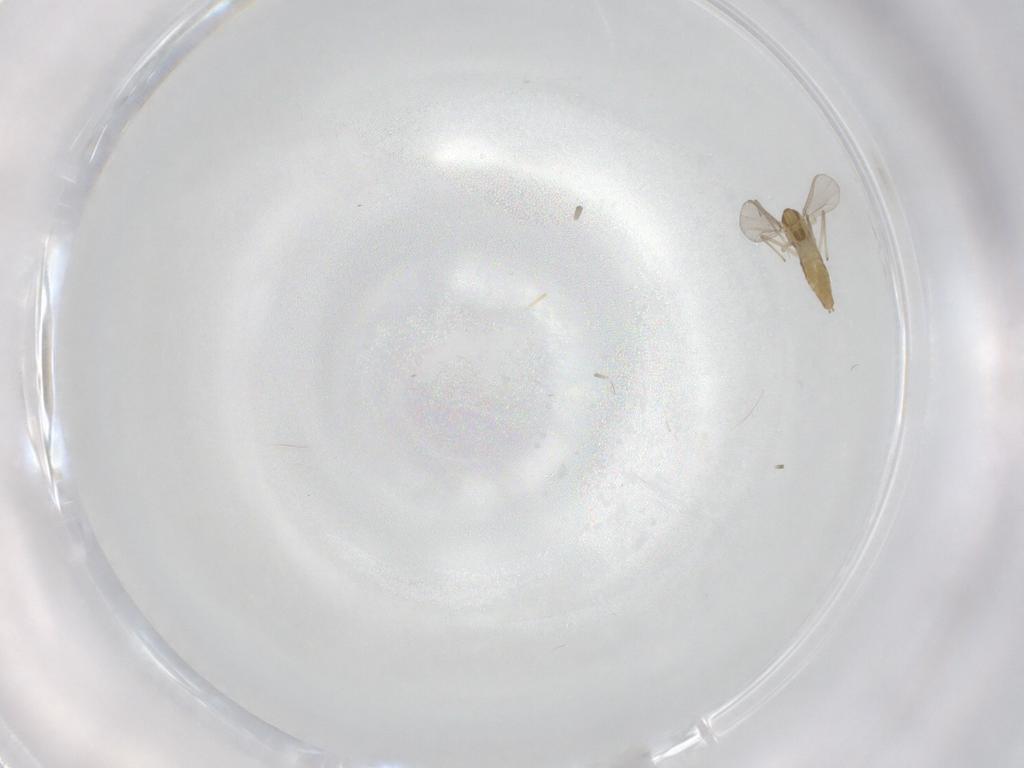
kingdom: Animalia
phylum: Arthropoda
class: Insecta
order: Diptera
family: Chironomidae
